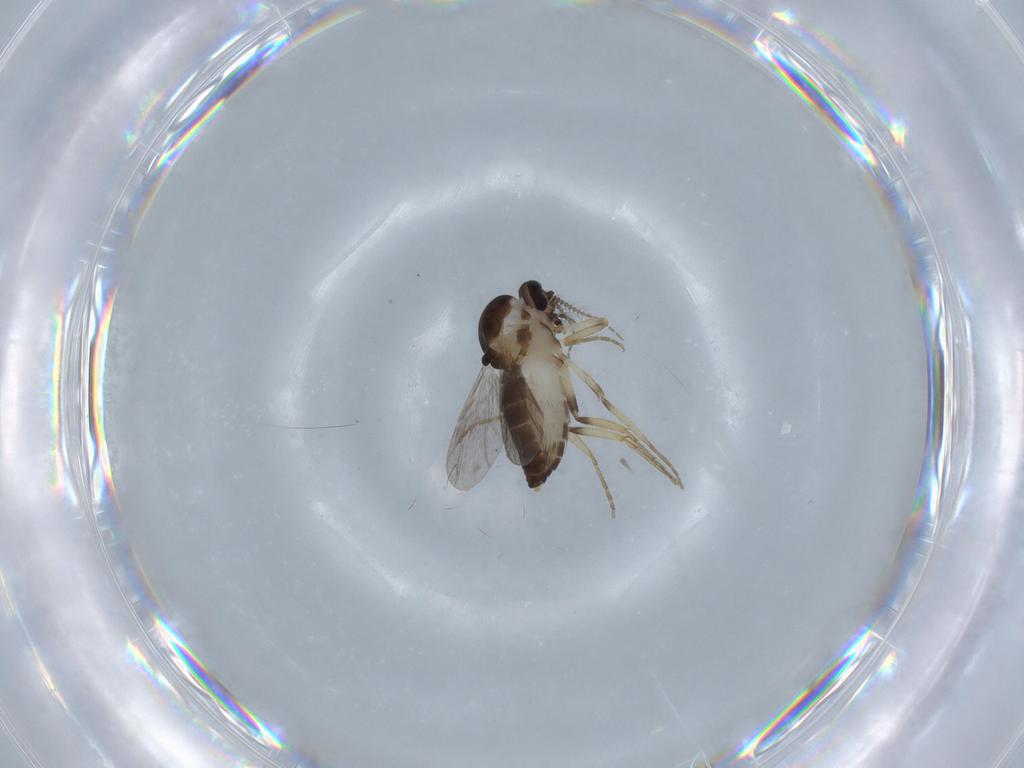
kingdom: Animalia
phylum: Arthropoda
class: Insecta
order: Diptera
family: Ceratopogonidae
